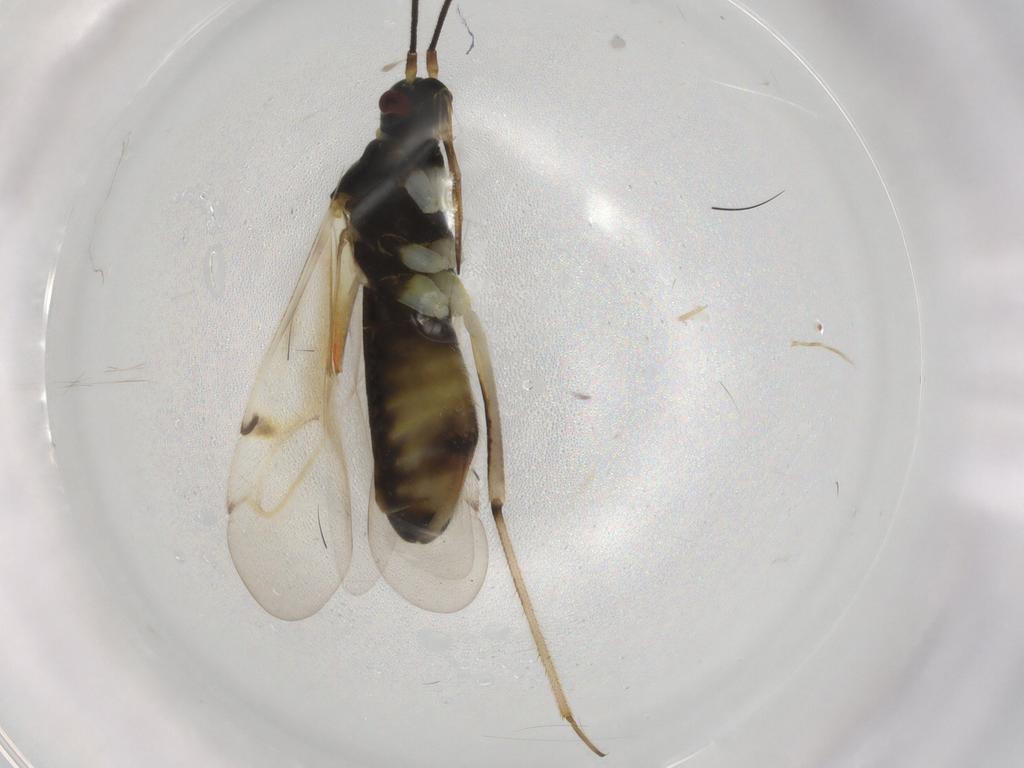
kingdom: Animalia
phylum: Arthropoda
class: Insecta
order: Hemiptera
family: Miridae
